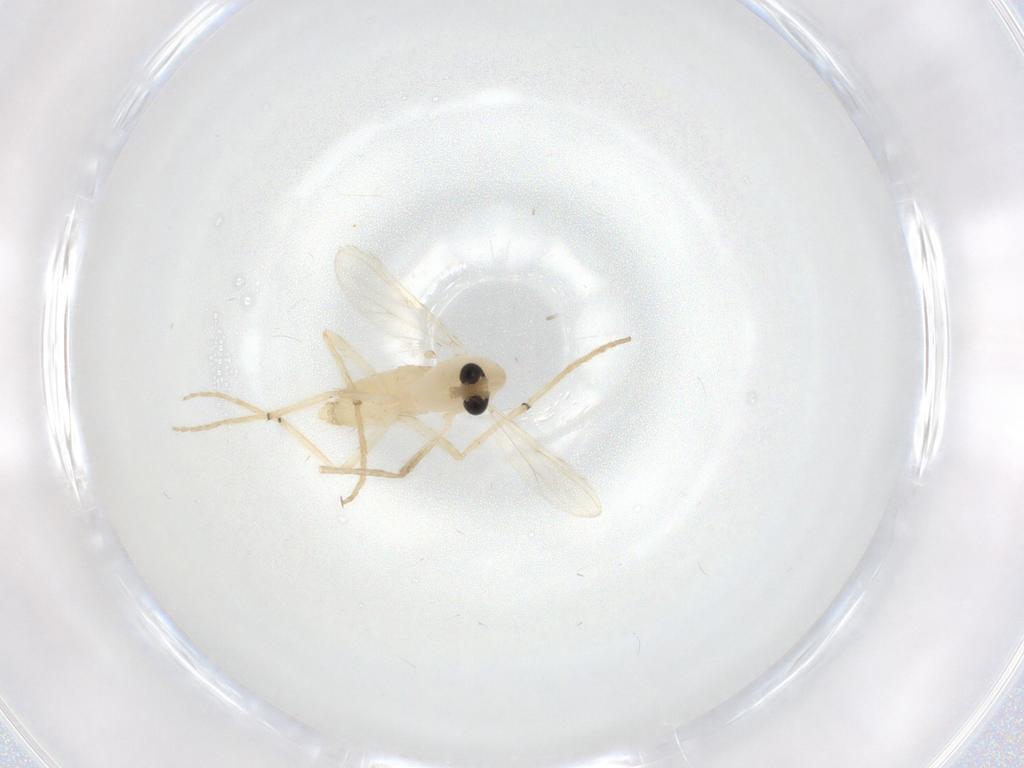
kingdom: Animalia
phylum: Arthropoda
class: Insecta
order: Diptera
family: Chironomidae
